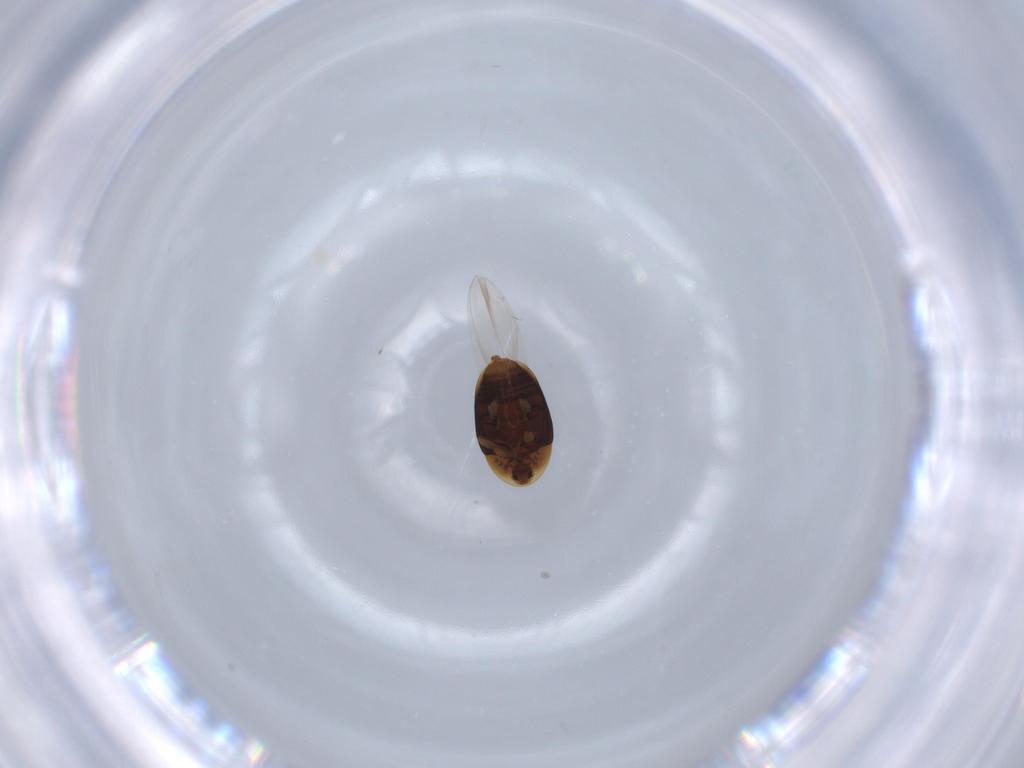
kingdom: Animalia
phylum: Arthropoda
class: Insecta
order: Coleoptera
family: Corylophidae
